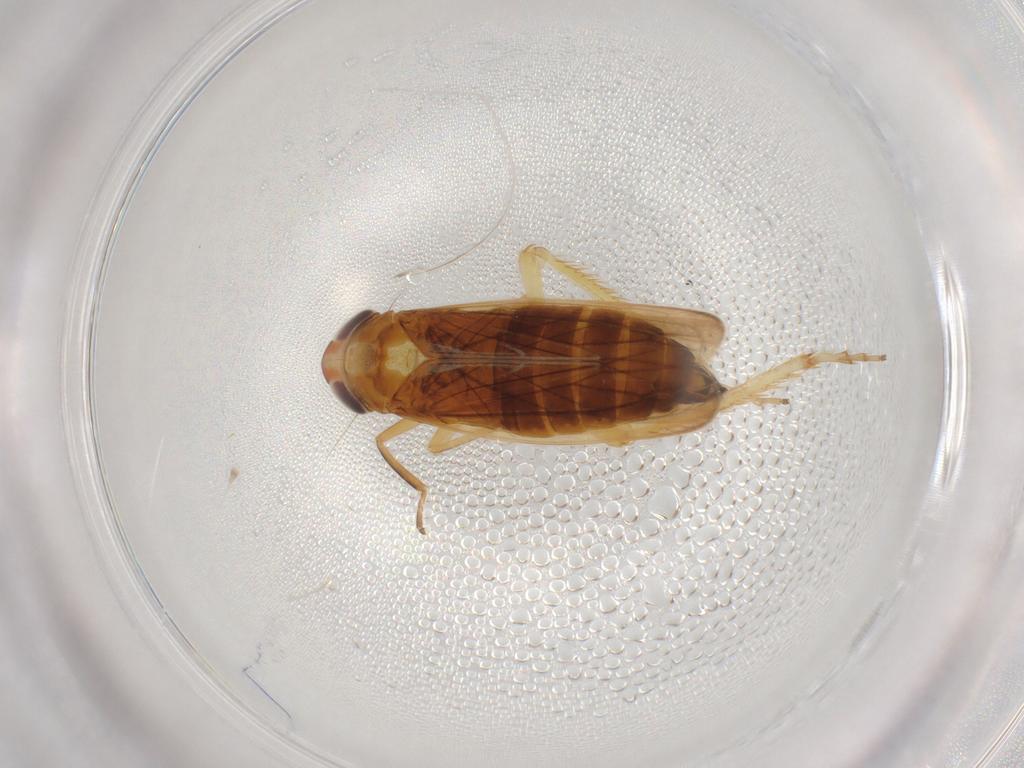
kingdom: Animalia
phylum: Arthropoda
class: Insecta
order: Hemiptera
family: Cicadellidae
